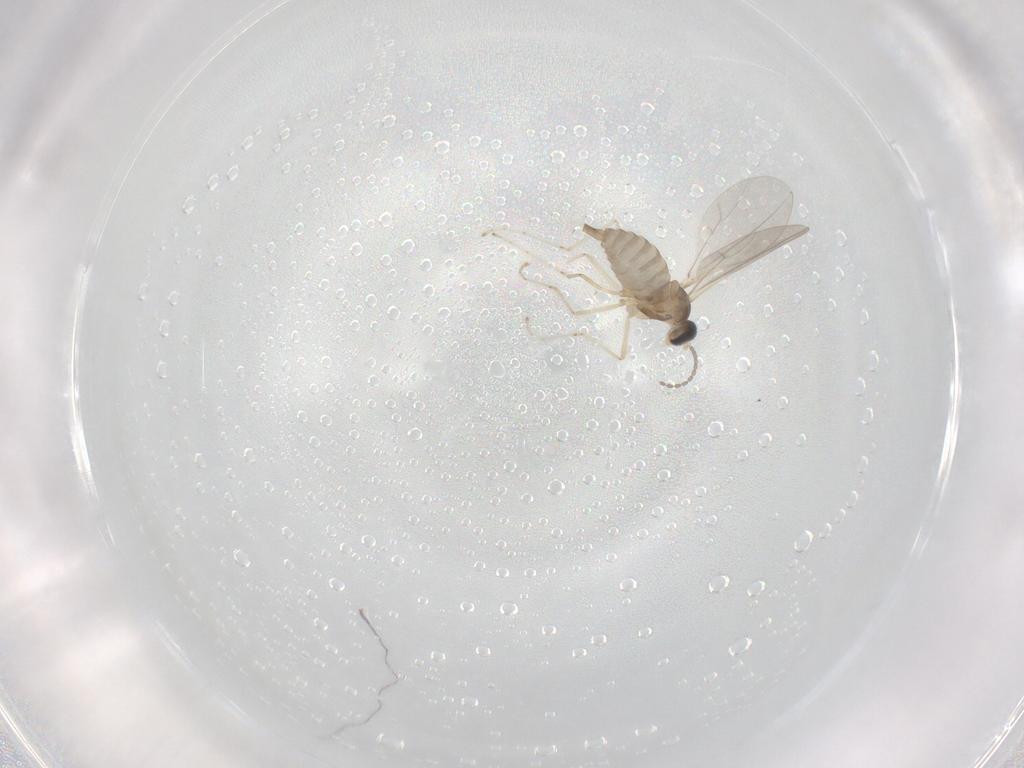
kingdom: Animalia
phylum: Arthropoda
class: Insecta
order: Diptera
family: Cecidomyiidae
